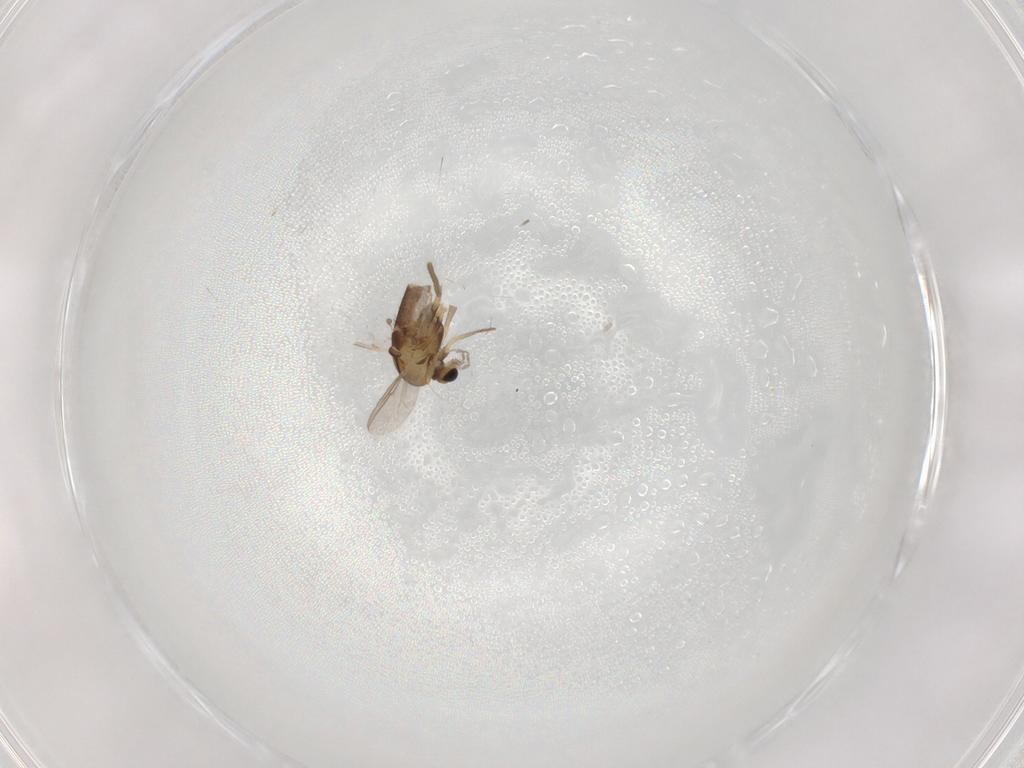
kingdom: Animalia
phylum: Arthropoda
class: Insecta
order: Diptera
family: Chironomidae
